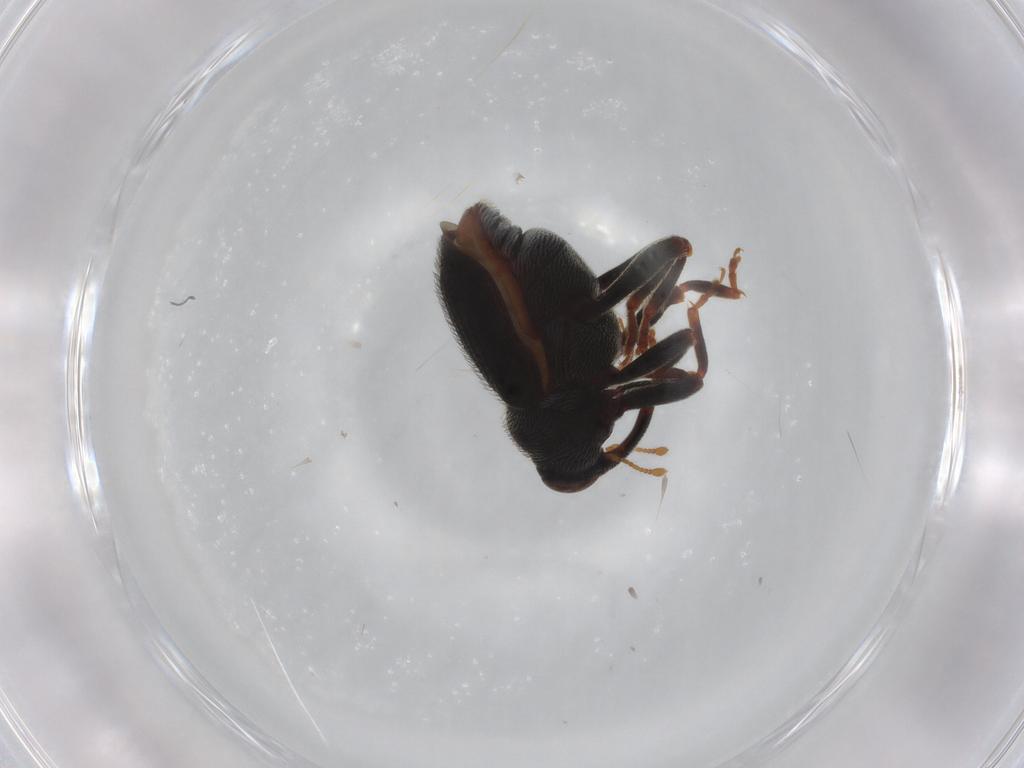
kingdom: Animalia
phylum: Arthropoda
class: Insecta
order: Coleoptera
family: Curculionidae
